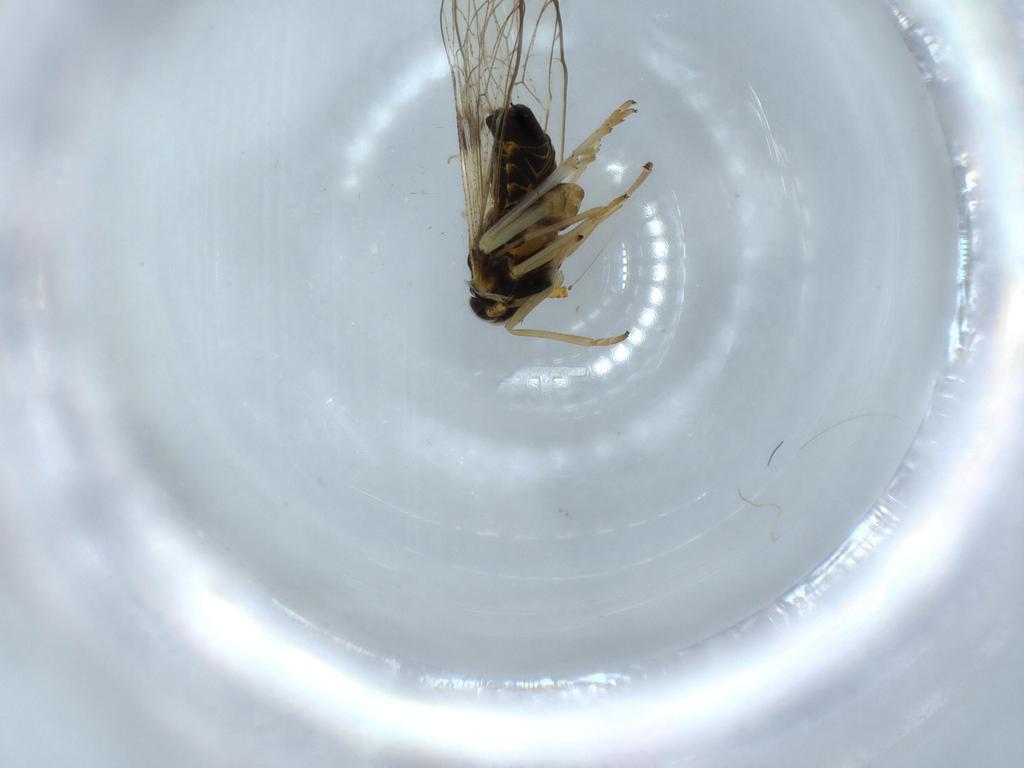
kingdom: Animalia
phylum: Arthropoda
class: Insecta
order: Hemiptera
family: Cicadellidae
